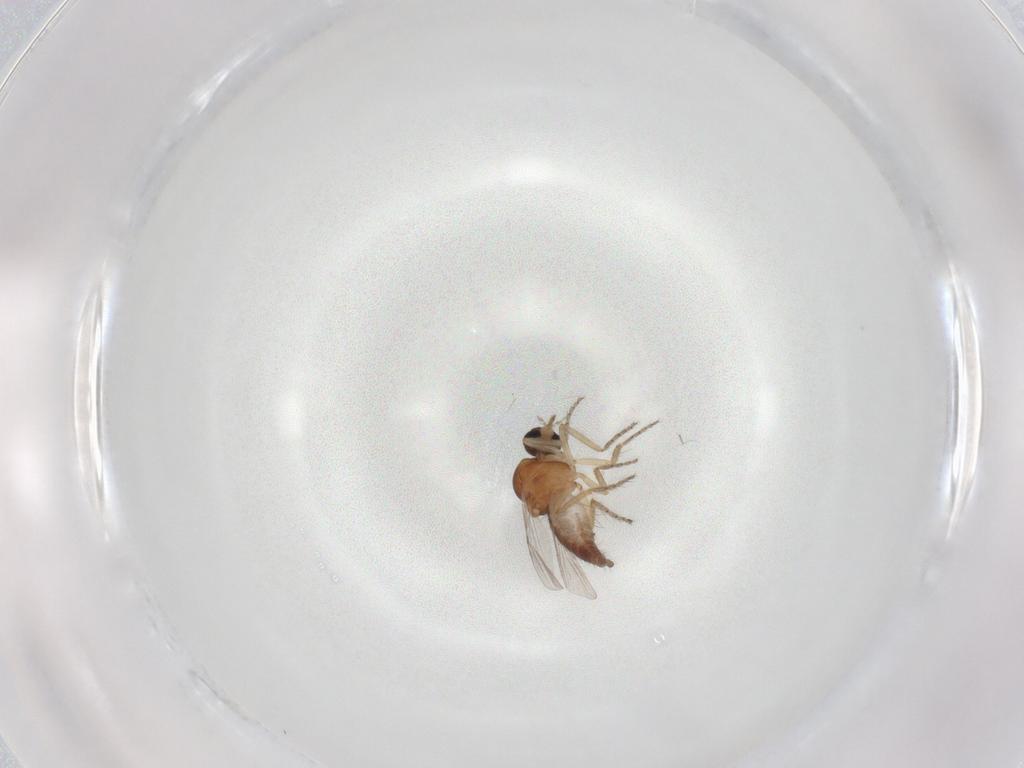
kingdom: Animalia
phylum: Arthropoda
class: Insecta
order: Diptera
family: Ceratopogonidae
